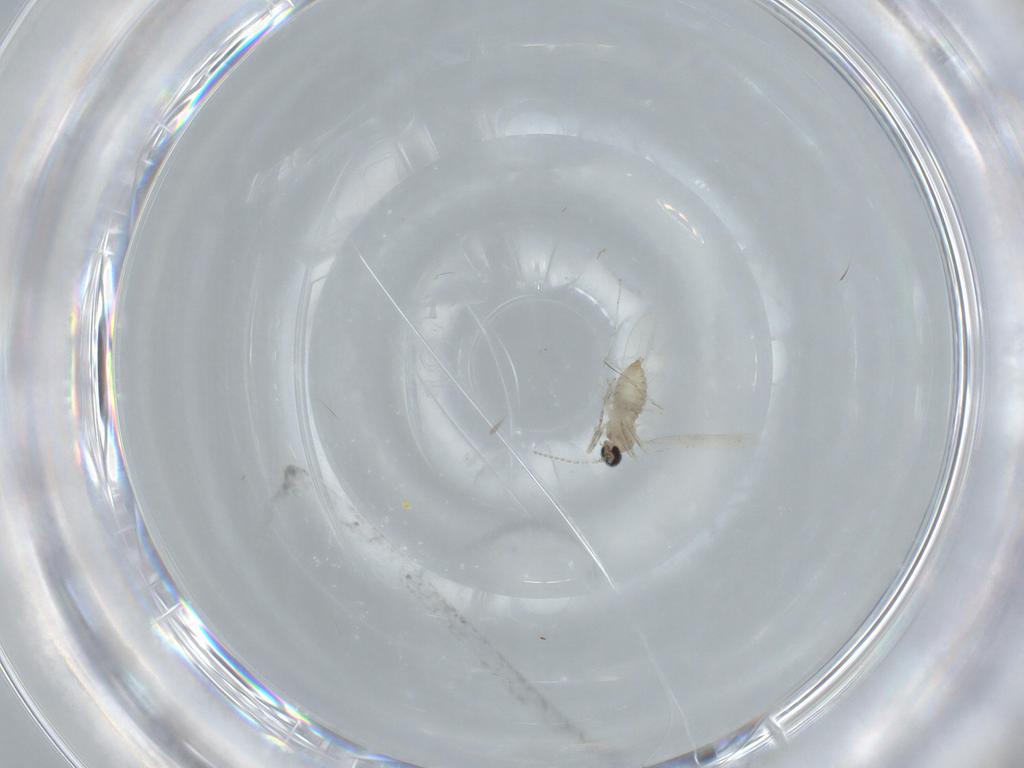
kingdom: Animalia
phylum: Arthropoda
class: Insecta
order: Diptera
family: Cecidomyiidae
